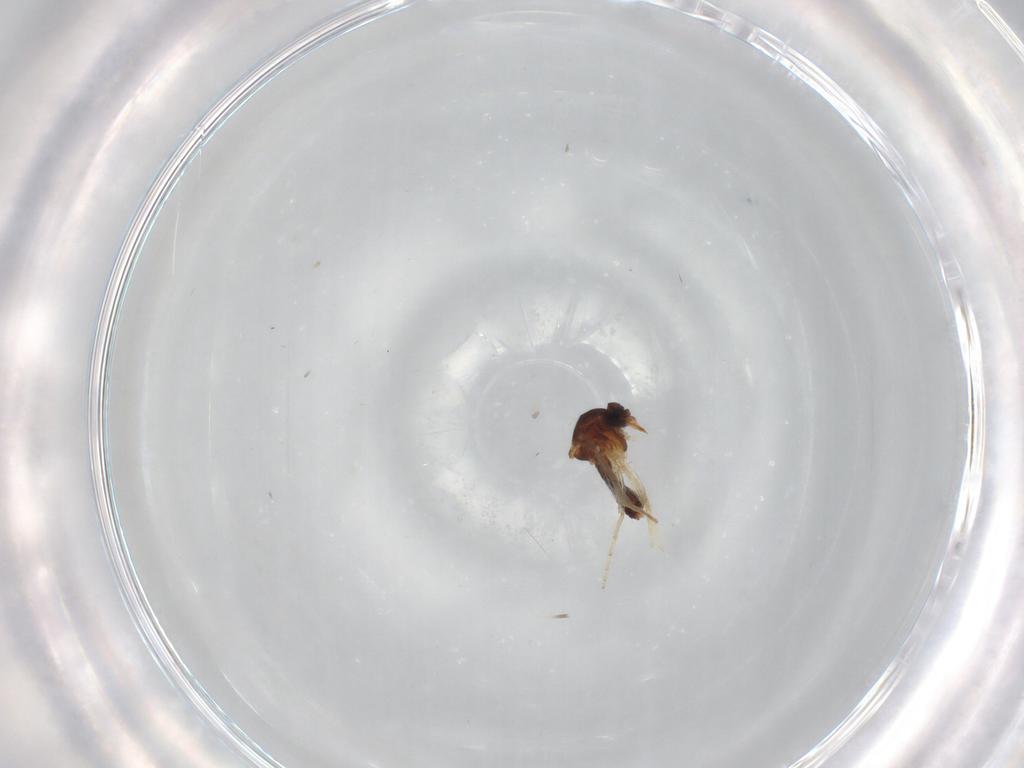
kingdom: Animalia
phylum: Arthropoda
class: Insecta
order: Diptera
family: Ceratopogonidae
